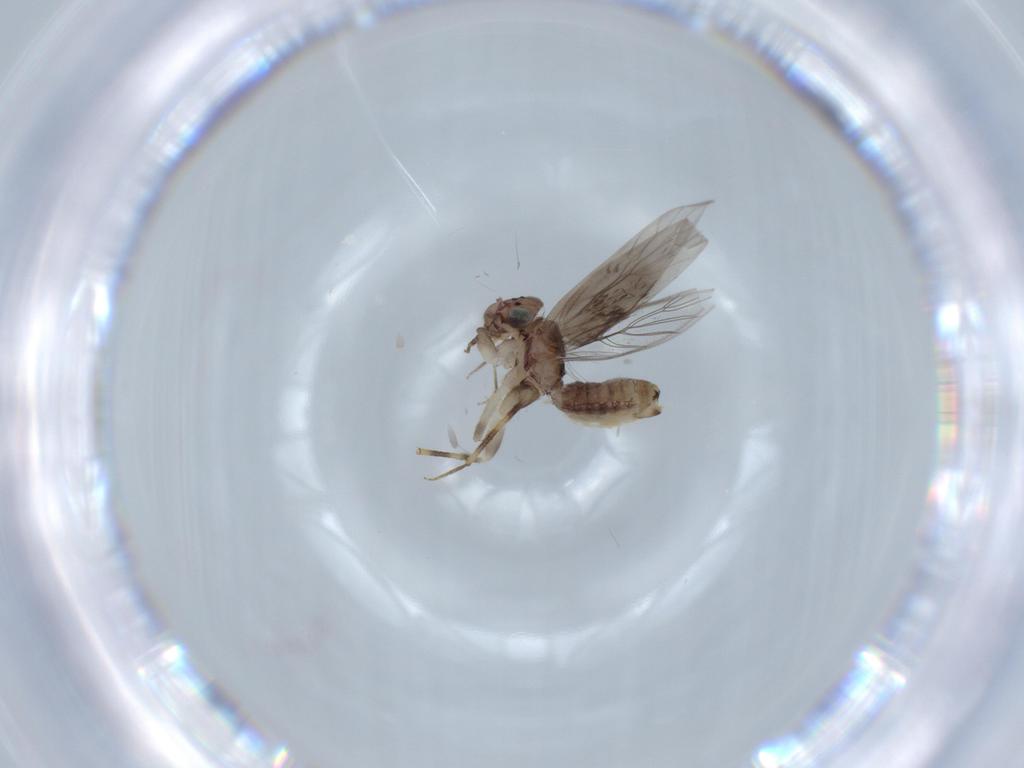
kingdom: Animalia
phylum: Arthropoda
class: Insecta
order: Psocodea
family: Lepidopsocidae
